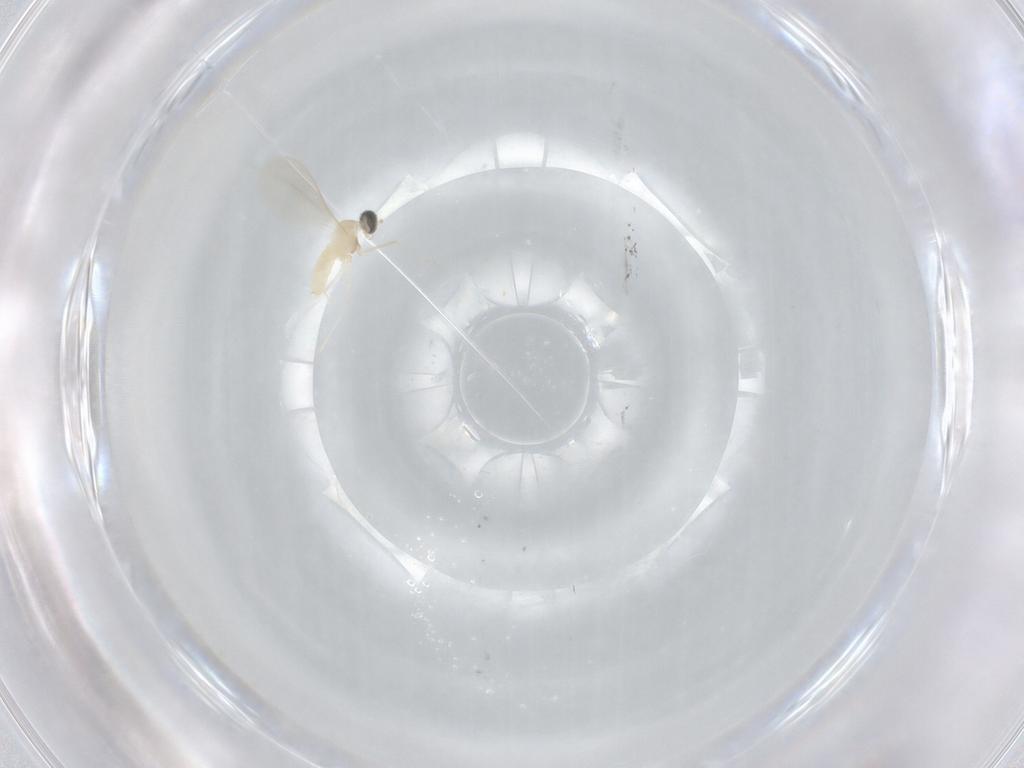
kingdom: Animalia
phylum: Arthropoda
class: Insecta
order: Diptera
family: Cecidomyiidae
